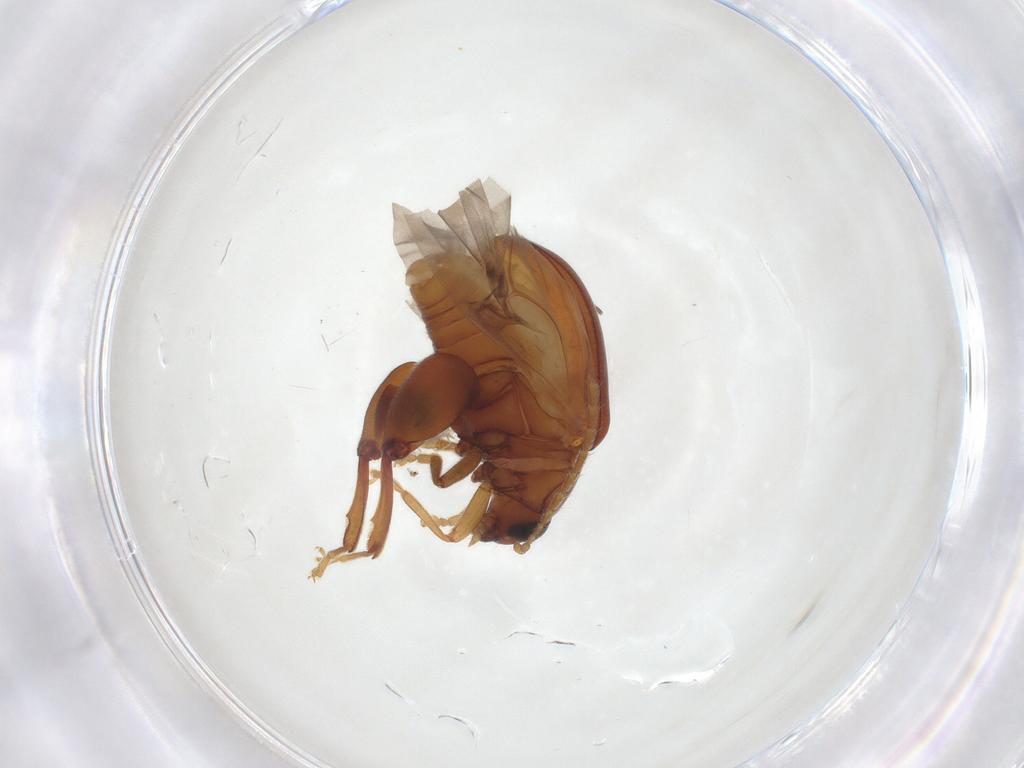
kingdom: Animalia
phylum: Arthropoda
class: Insecta
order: Coleoptera
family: Chrysomelidae
